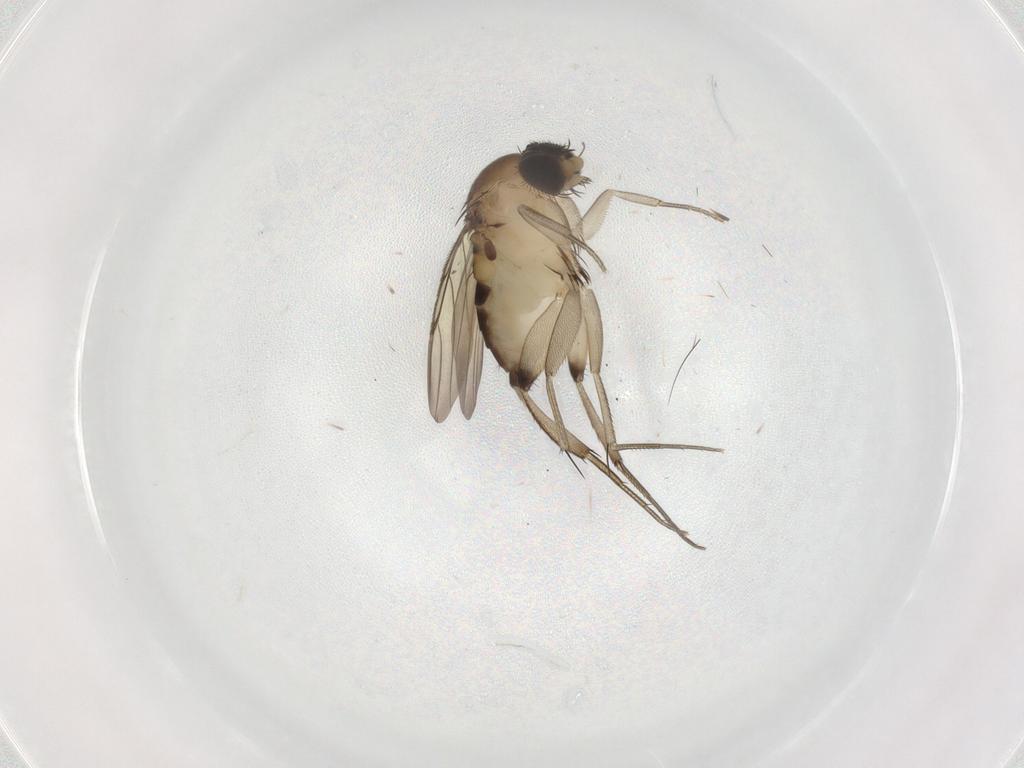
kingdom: Animalia
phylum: Arthropoda
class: Insecta
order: Diptera
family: Phoridae
